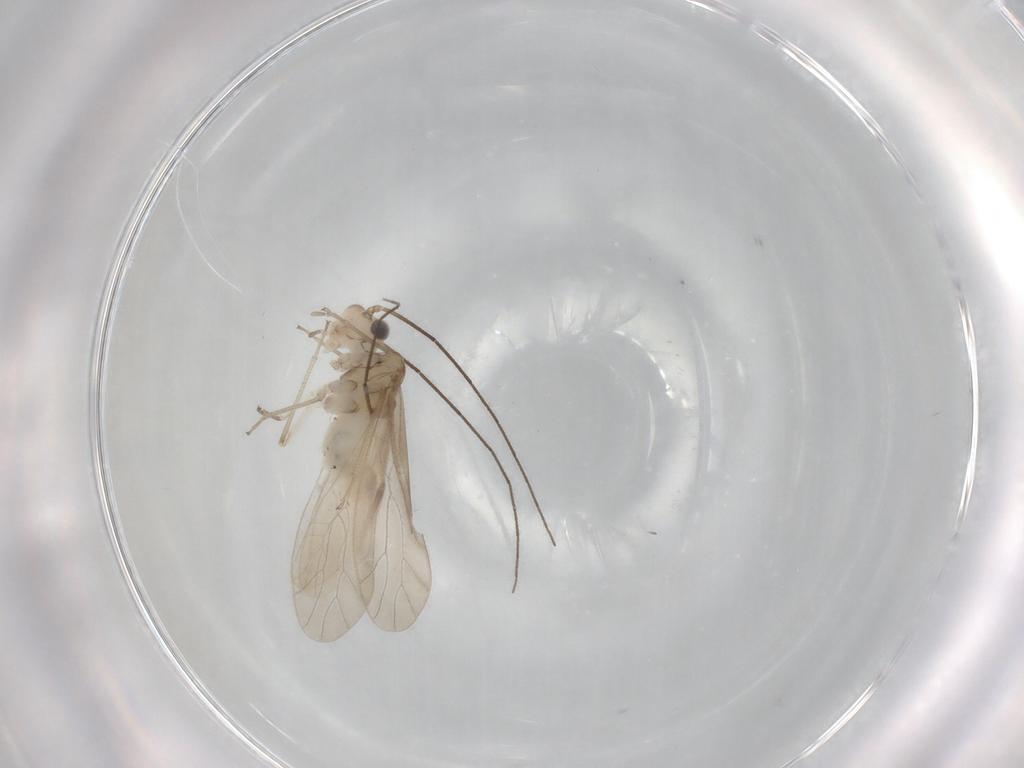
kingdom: Animalia
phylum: Arthropoda
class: Insecta
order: Psocodea
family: Caeciliusidae
